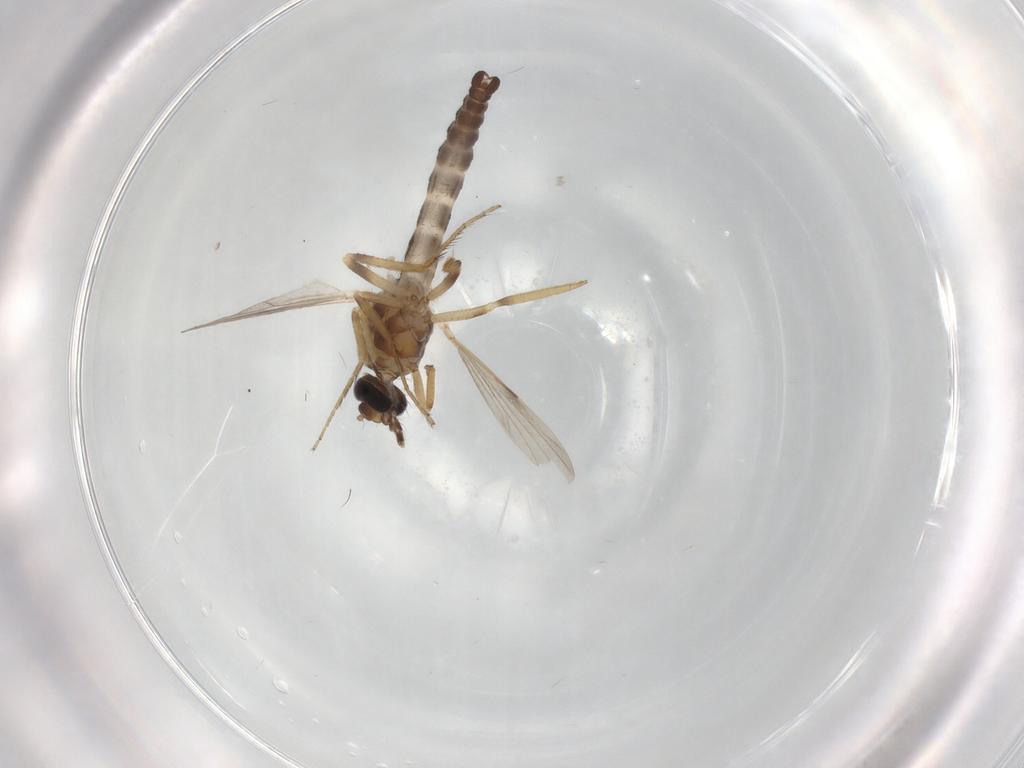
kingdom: Animalia
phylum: Arthropoda
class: Insecta
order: Diptera
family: Ceratopogonidae
